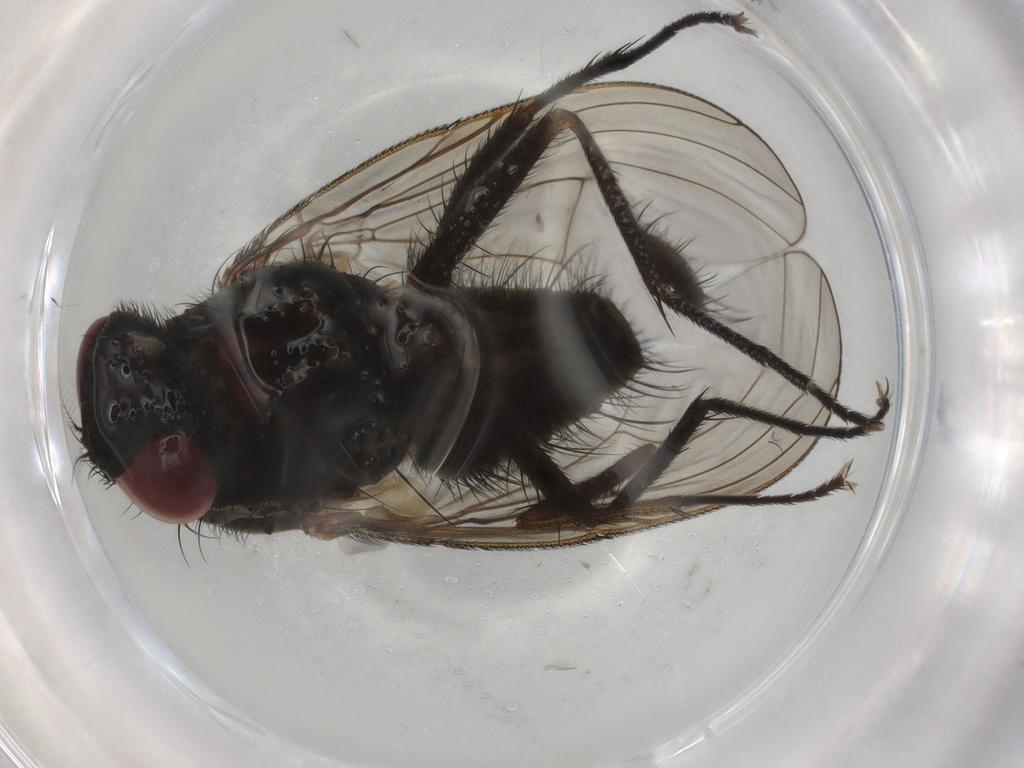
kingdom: Animalia
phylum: Arthropoda
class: Insecta
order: Diptera
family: Muscidae
